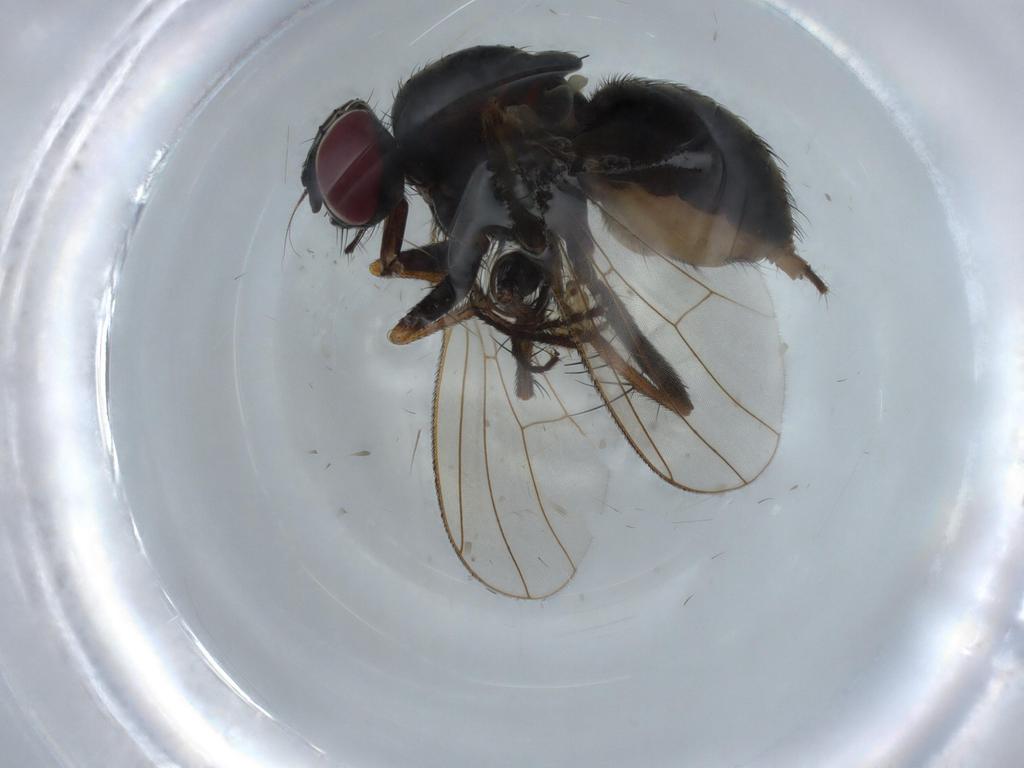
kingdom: Animalia
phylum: Arthropoda
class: Insecta
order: Diptera
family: Muscidae
